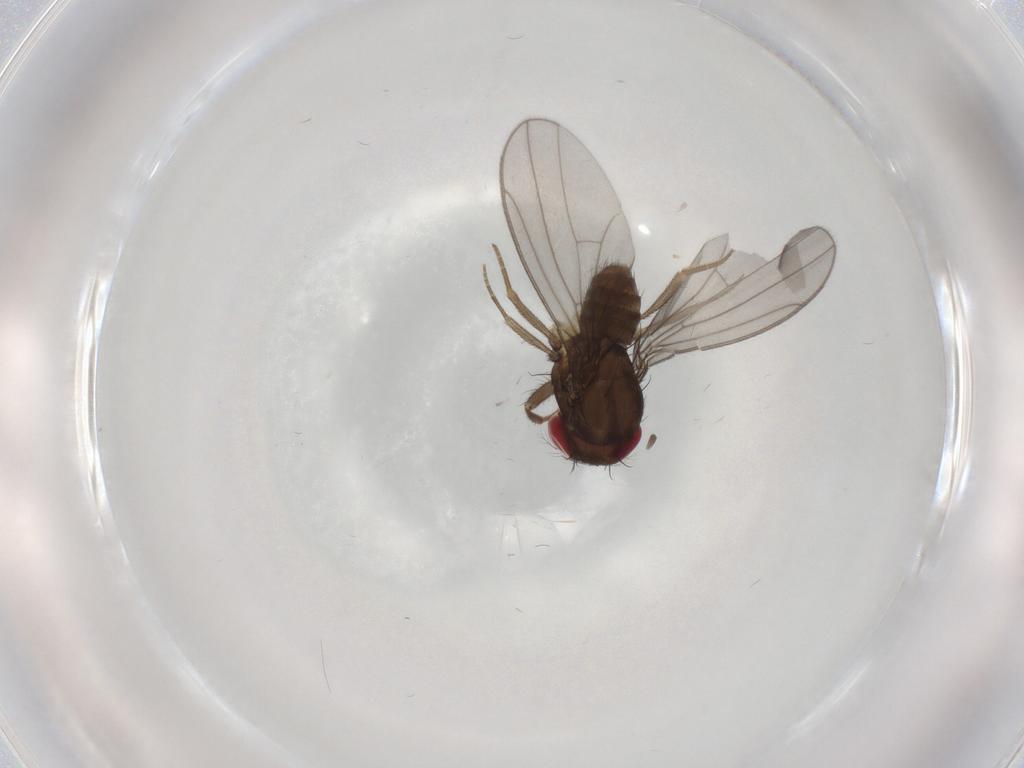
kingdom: Animalia
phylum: Arthropoda
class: Insecta
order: Diptera
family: Drosophilidae
